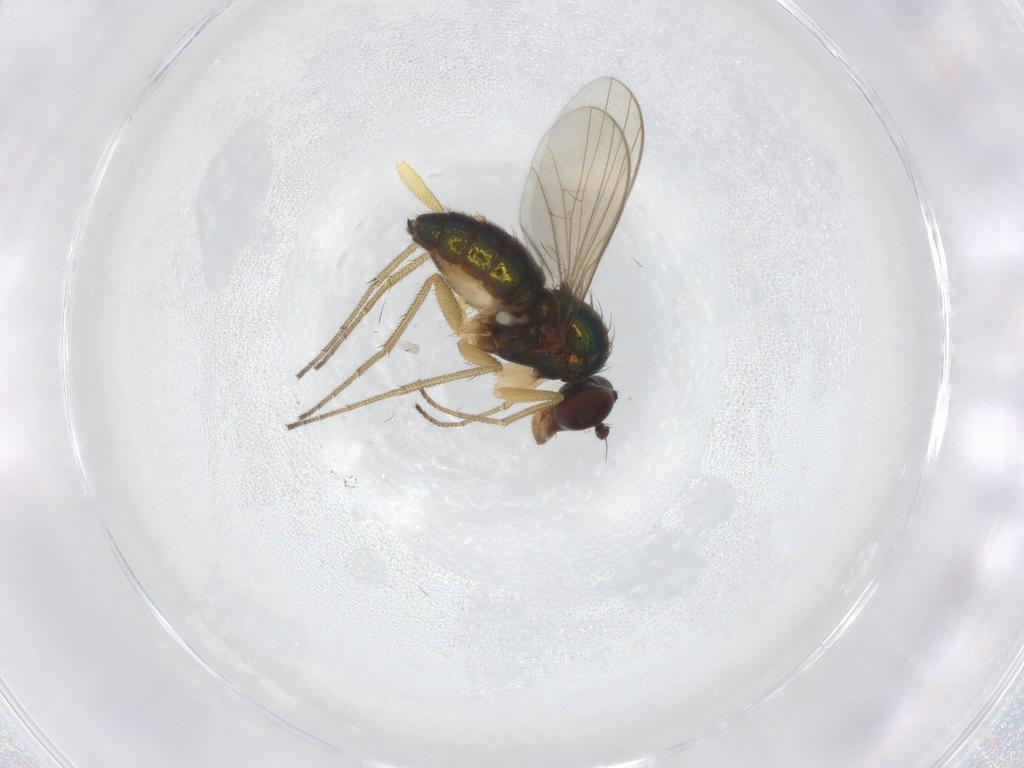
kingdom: Animalia
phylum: Arthropoda
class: Insecta
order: Diptera
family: Dolichopodidae
